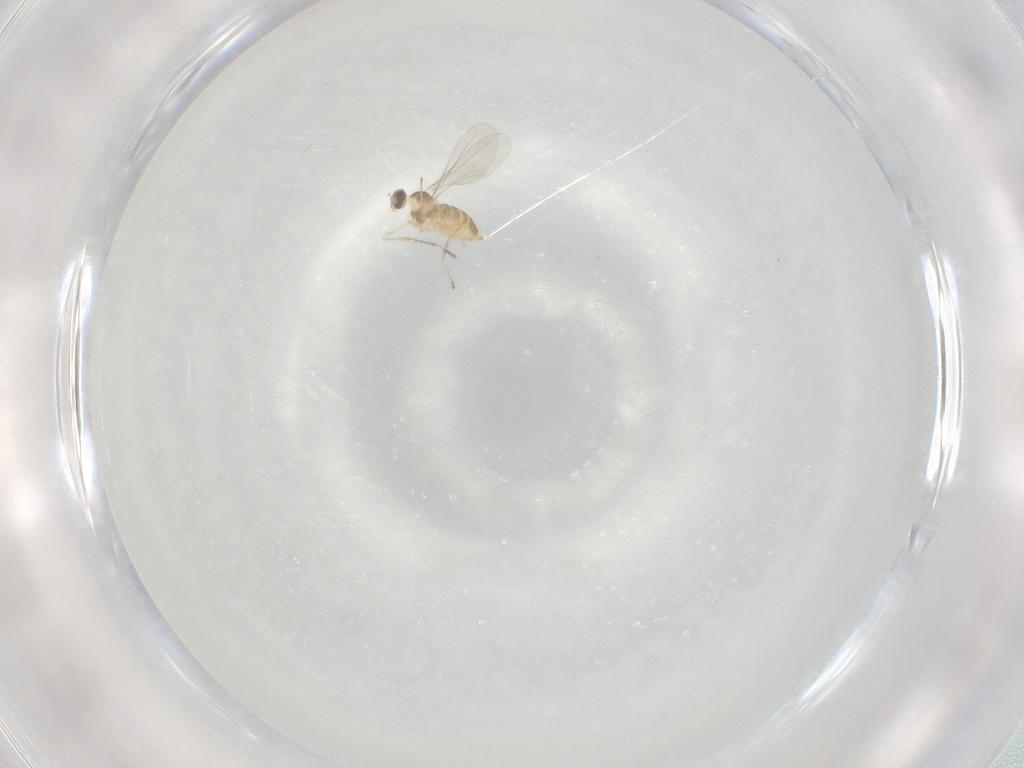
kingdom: Animalia
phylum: Arthropoda
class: Insecta
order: Diptera
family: Cecidomyiidae
